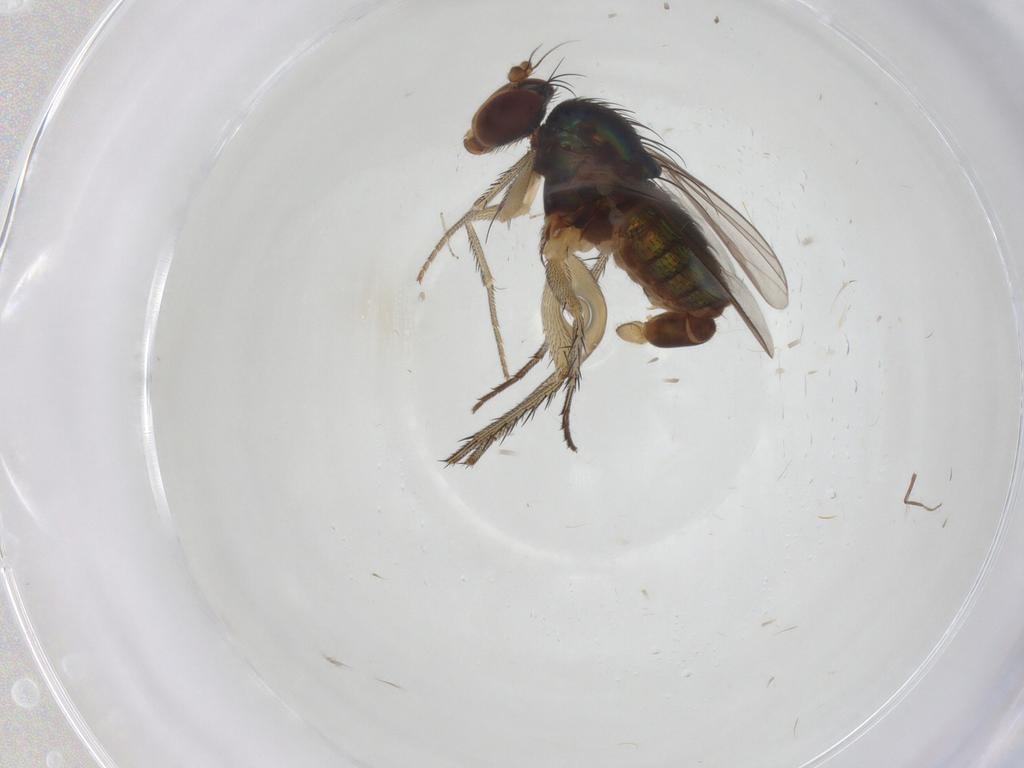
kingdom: Animalia
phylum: Arthropoda
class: Insecta
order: Diptera
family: Dolichopodidae
